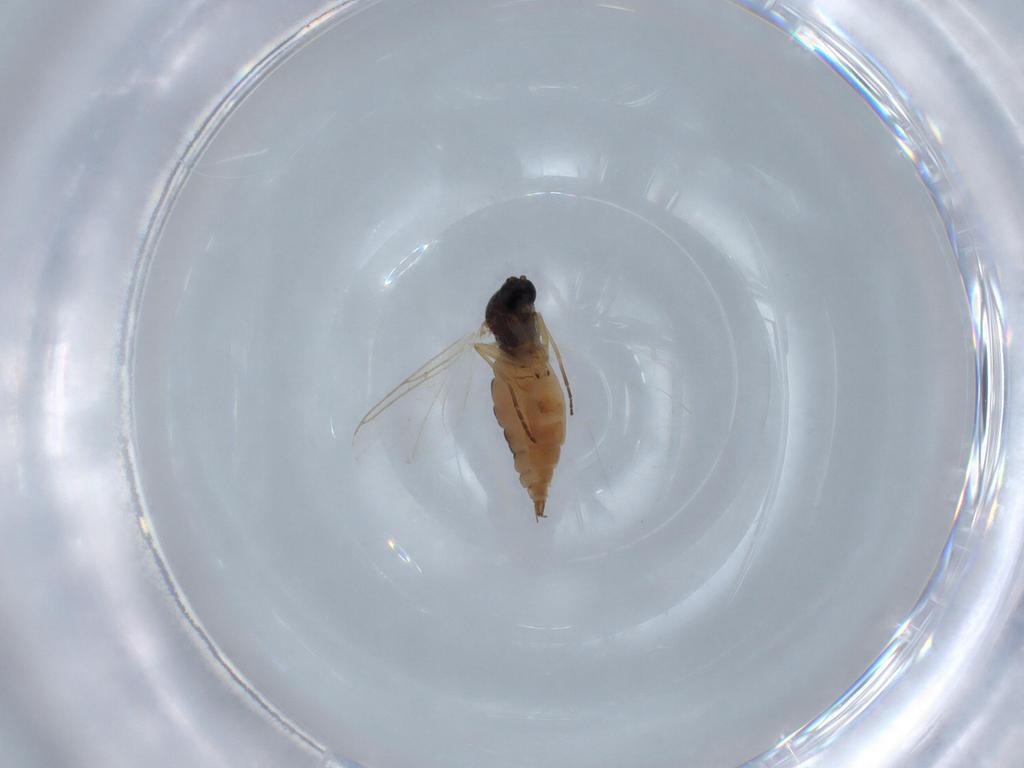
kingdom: Animalia
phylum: Arthropoda
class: Insecta
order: Diptera
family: Sciaridae
